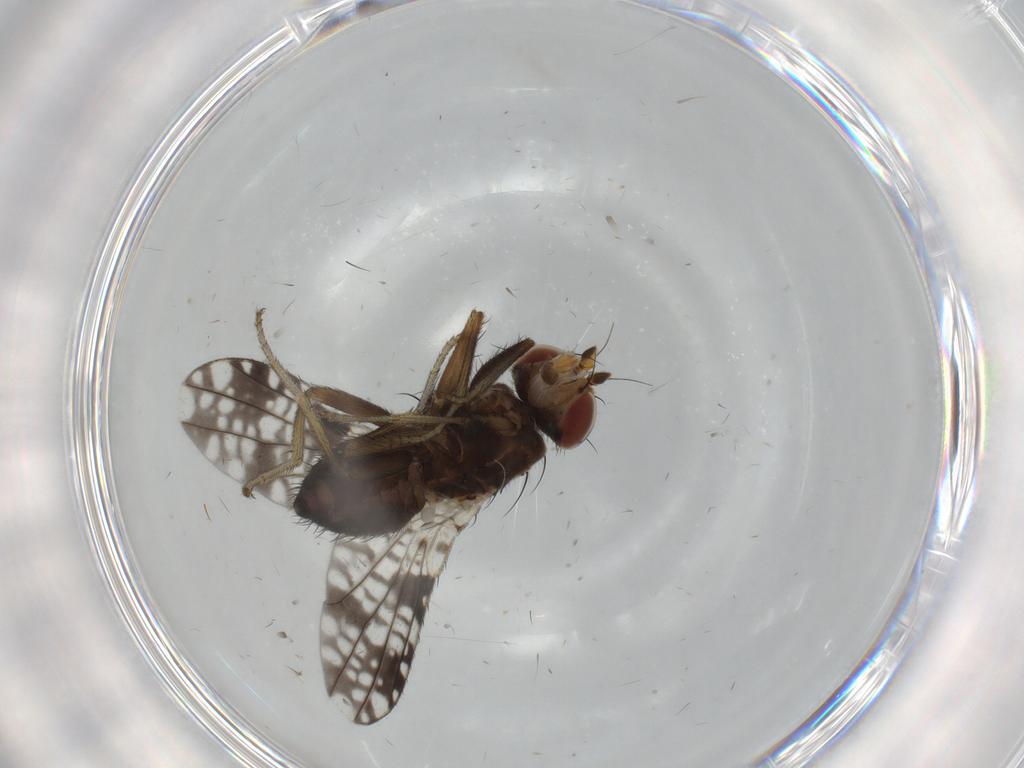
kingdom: Animalia
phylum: Arthropoda
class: Insecta
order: Diptera
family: Tephritidae
